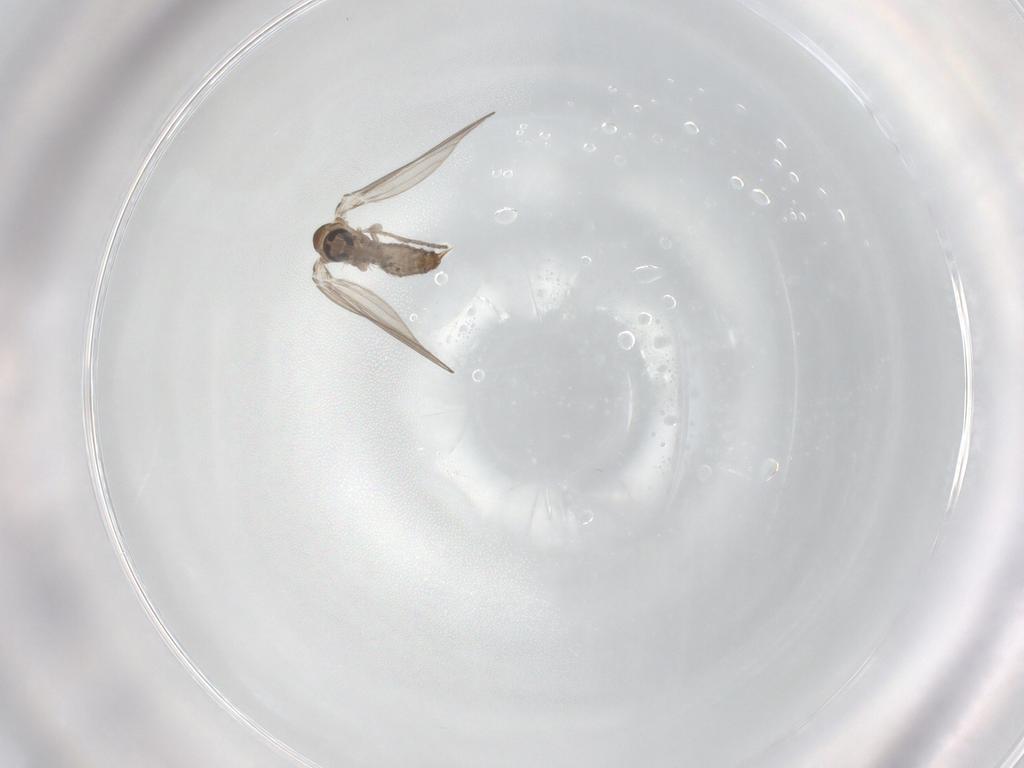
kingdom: Animalia
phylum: Arthropoda
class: Insecta
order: Diptera
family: Psychodidae
